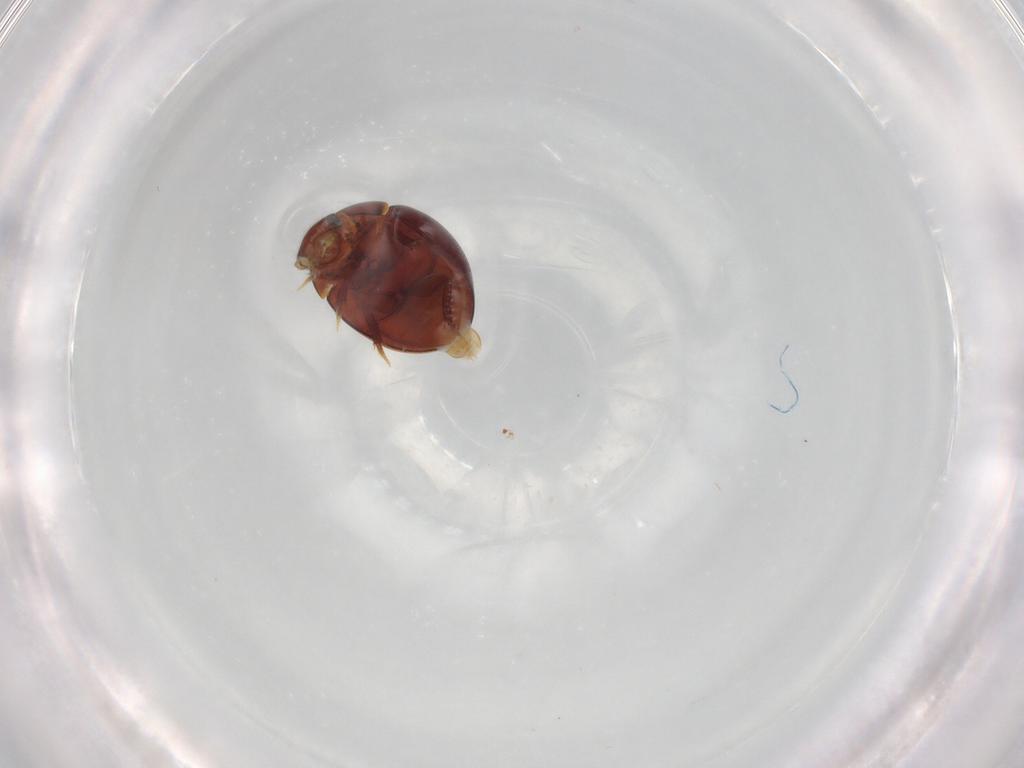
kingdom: Animalia
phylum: Arthropoda
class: Insecta
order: Coleoptera
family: Hydrophilidae
